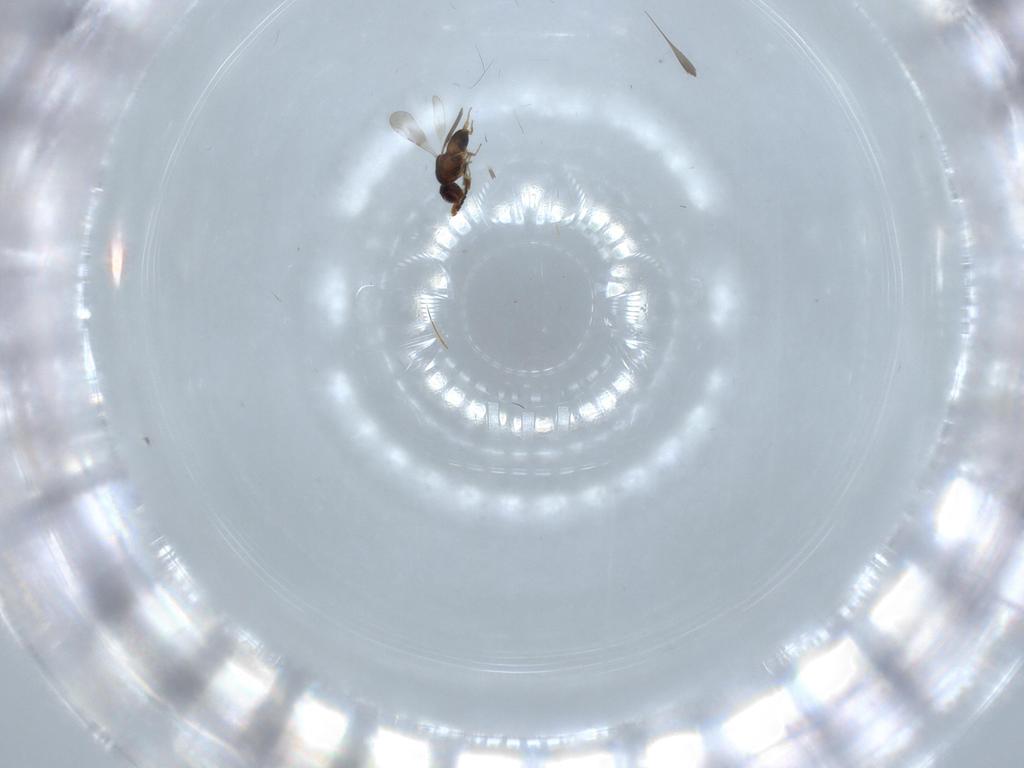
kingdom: Animalia
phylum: Arthropoda
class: Insecta
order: Hymenoptera
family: Ceraphronidae
